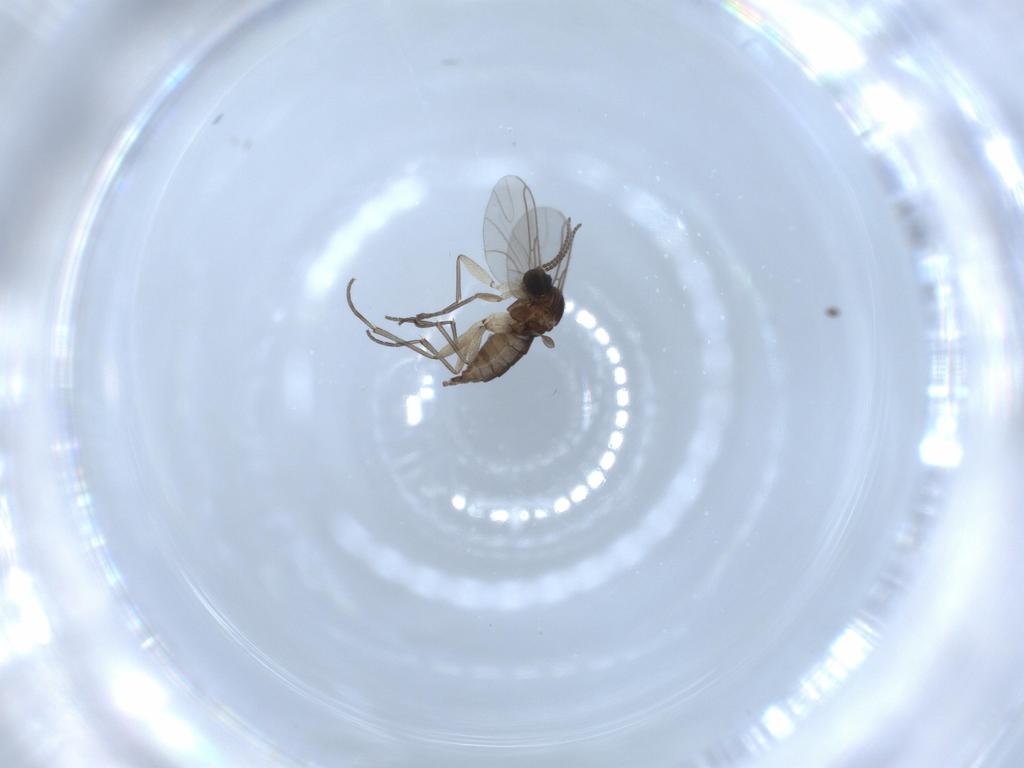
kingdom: Animalia
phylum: Arthropoda
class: Insecta
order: Diptera
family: Sciaridae
